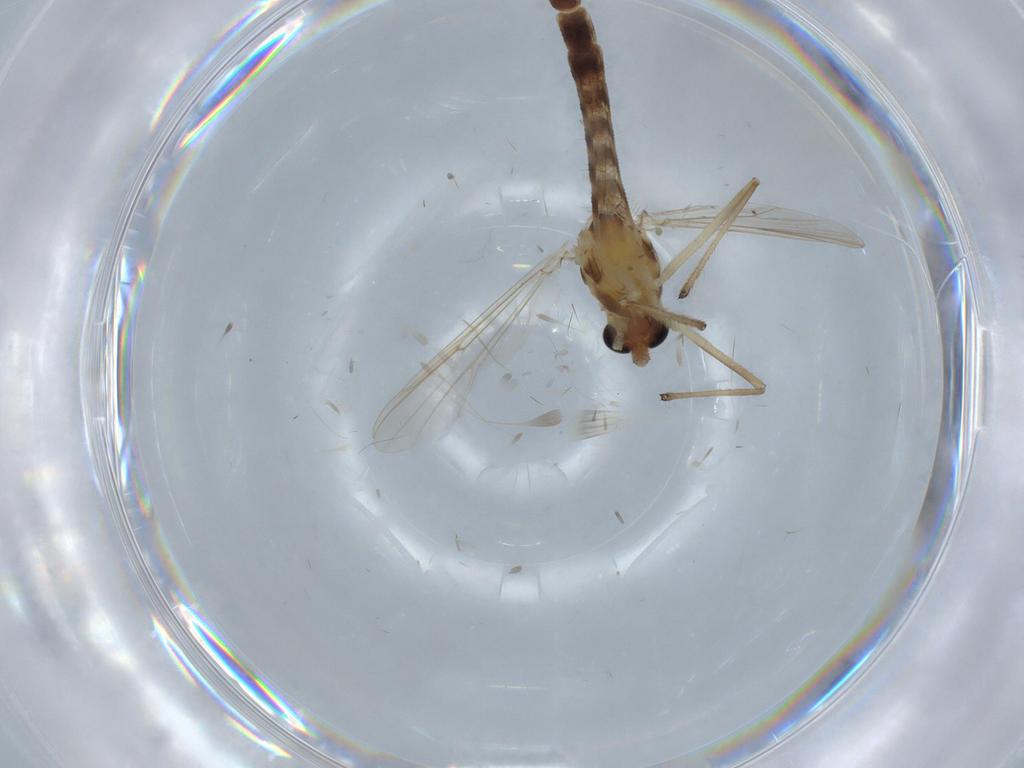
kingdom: Animalia
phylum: Arthropoda
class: Insecta
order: Diptera
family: Chironomidae
